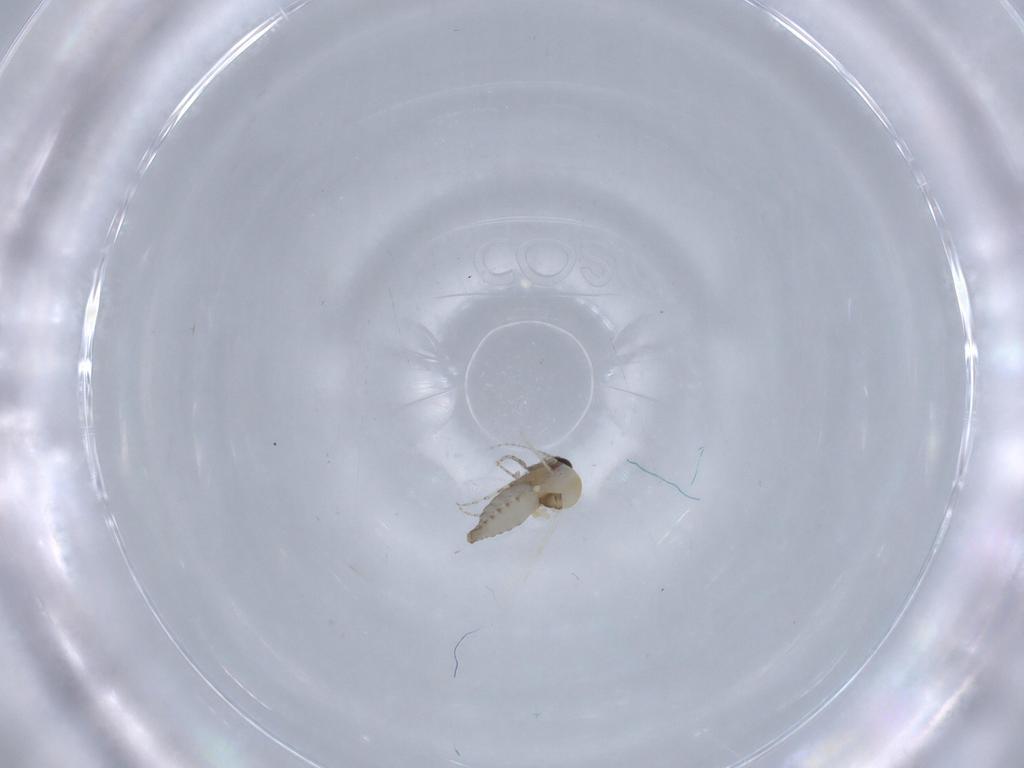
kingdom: Animalia
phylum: Arthropoda
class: Insecta
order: Diptera
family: Ceratopogonidae
